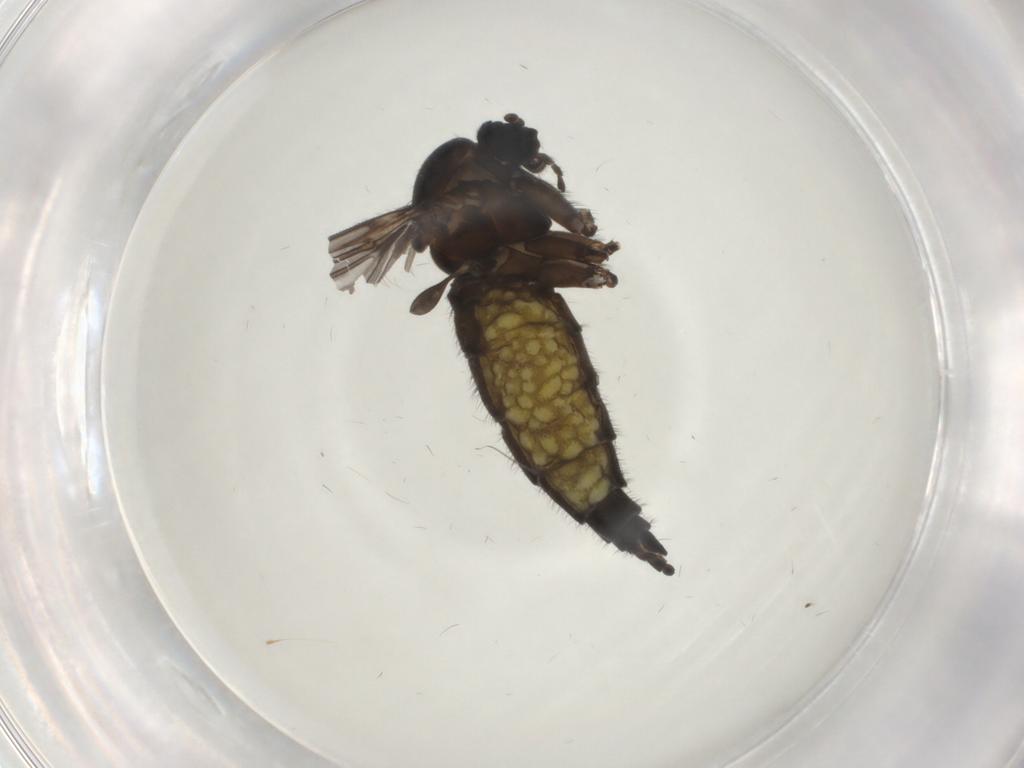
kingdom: Animalia
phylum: Arthropoda
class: Insecta
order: Diptera
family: Sciaridae
